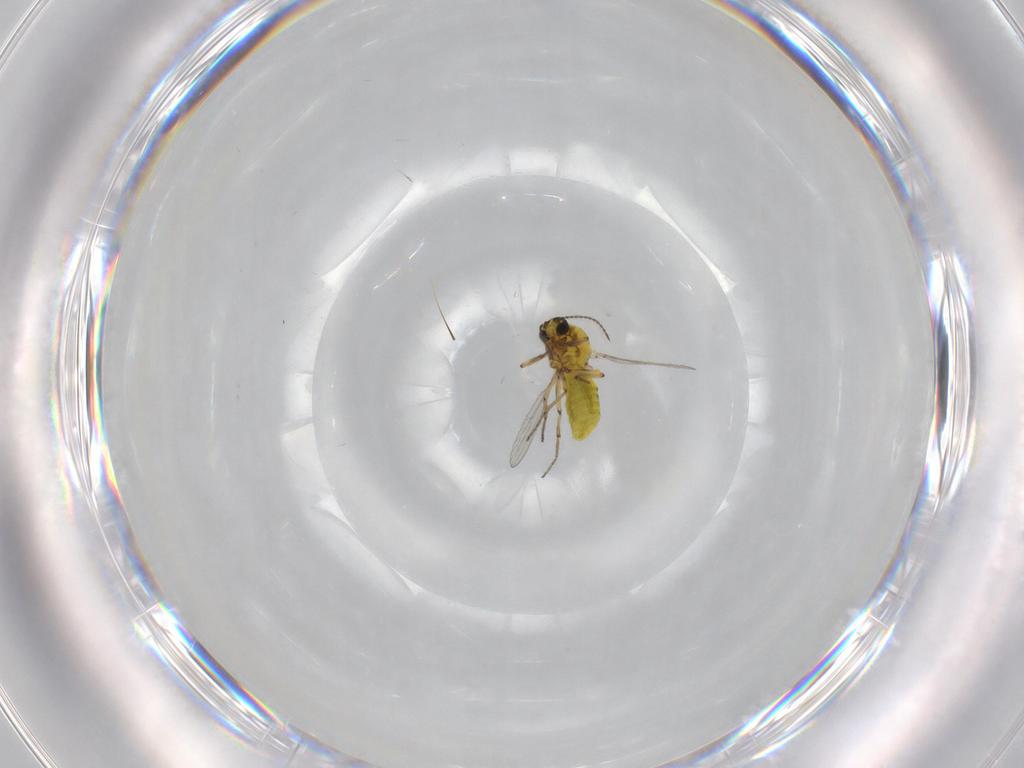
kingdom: Animalia
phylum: Arthropoda
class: Insecta
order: Diptera
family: Ceratopogonidae
